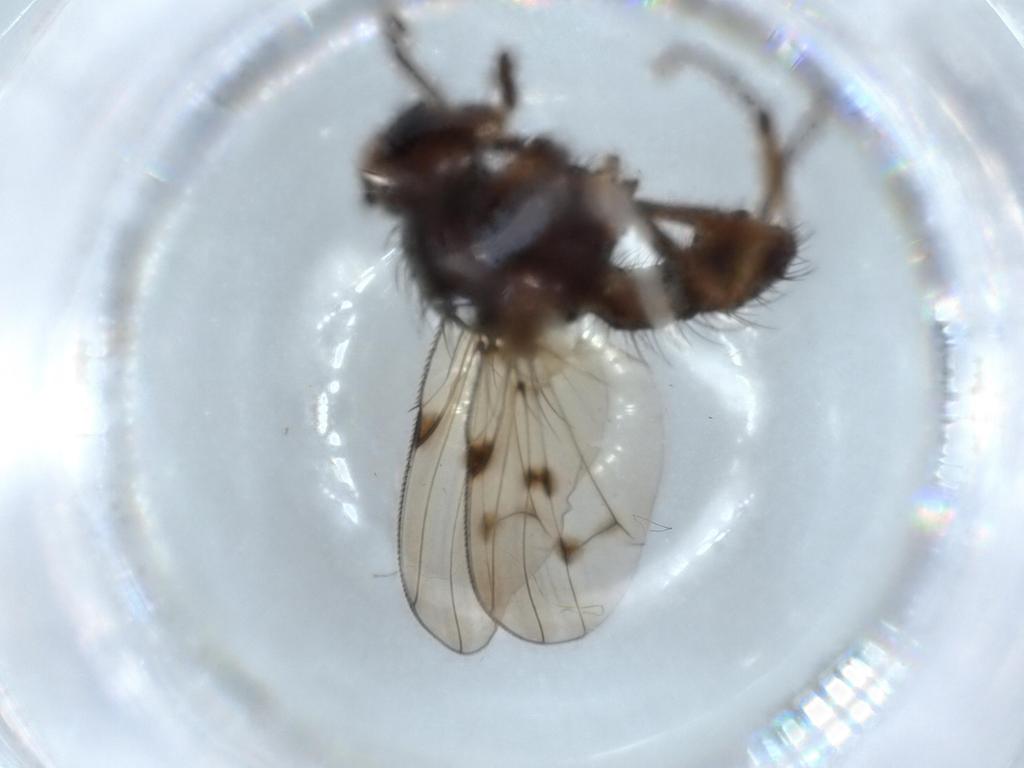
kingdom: Animalia
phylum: Arthropoda
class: Insecta
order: Diptera
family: Anthomyiidae
